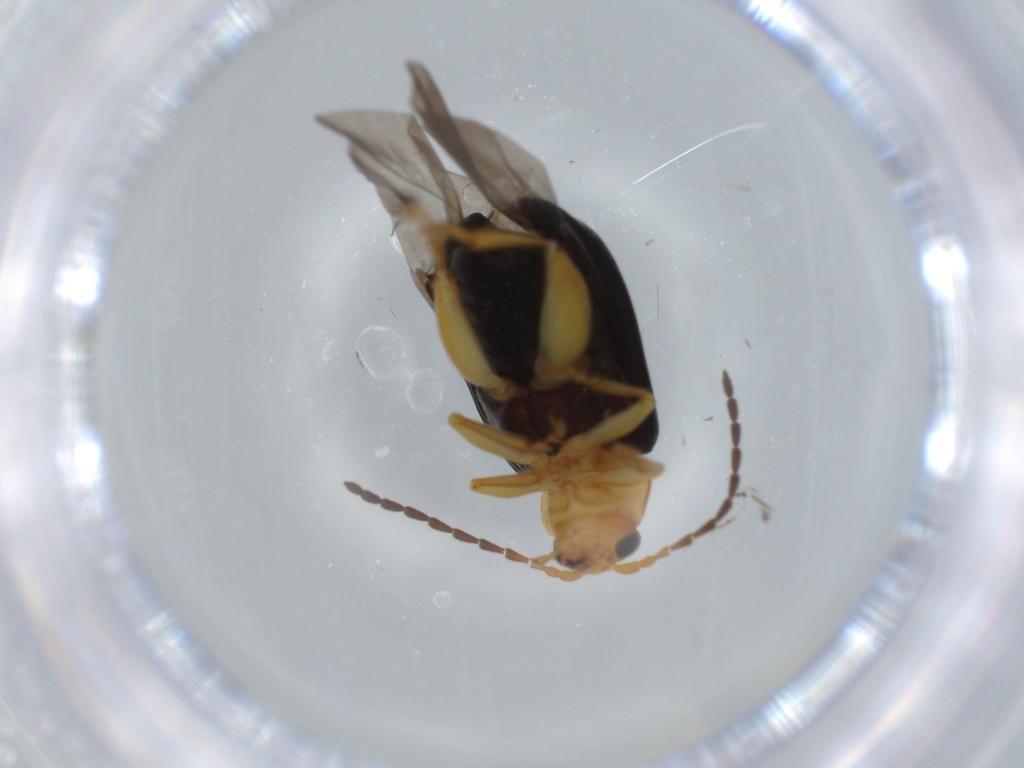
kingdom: Animalia
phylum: Arthropoda
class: Insecta
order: Coleoptera
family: Chrysomelidae
